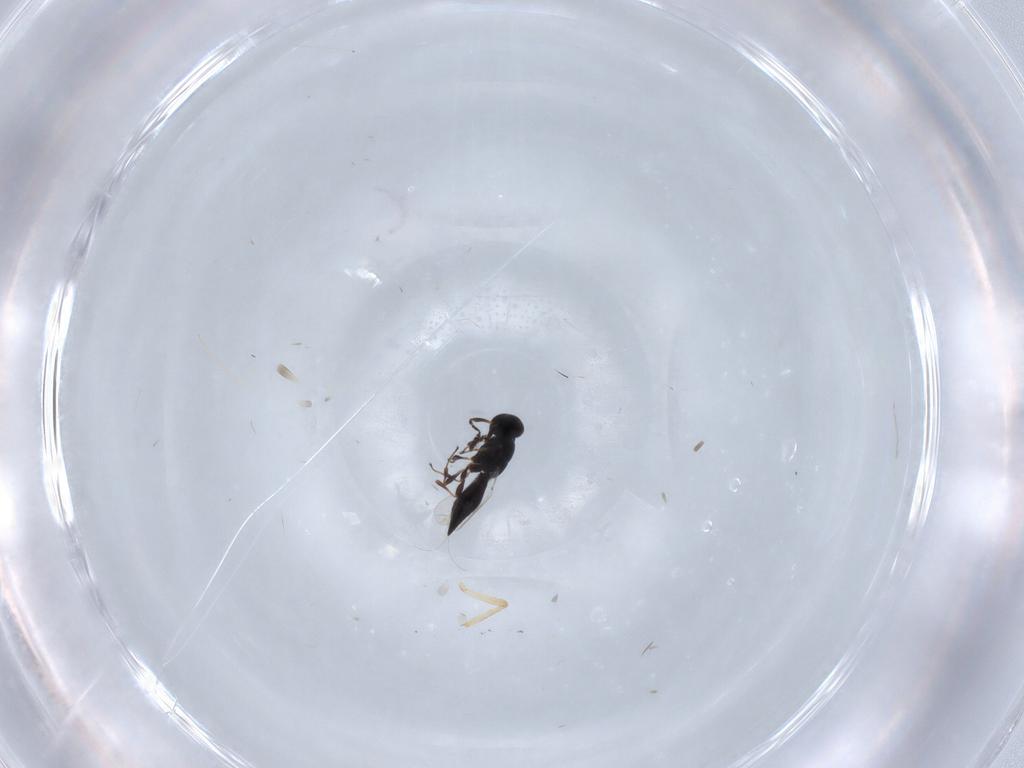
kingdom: Animalia
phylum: Arthropoda
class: Insecta
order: Hymenoptera
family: Platygastridae
